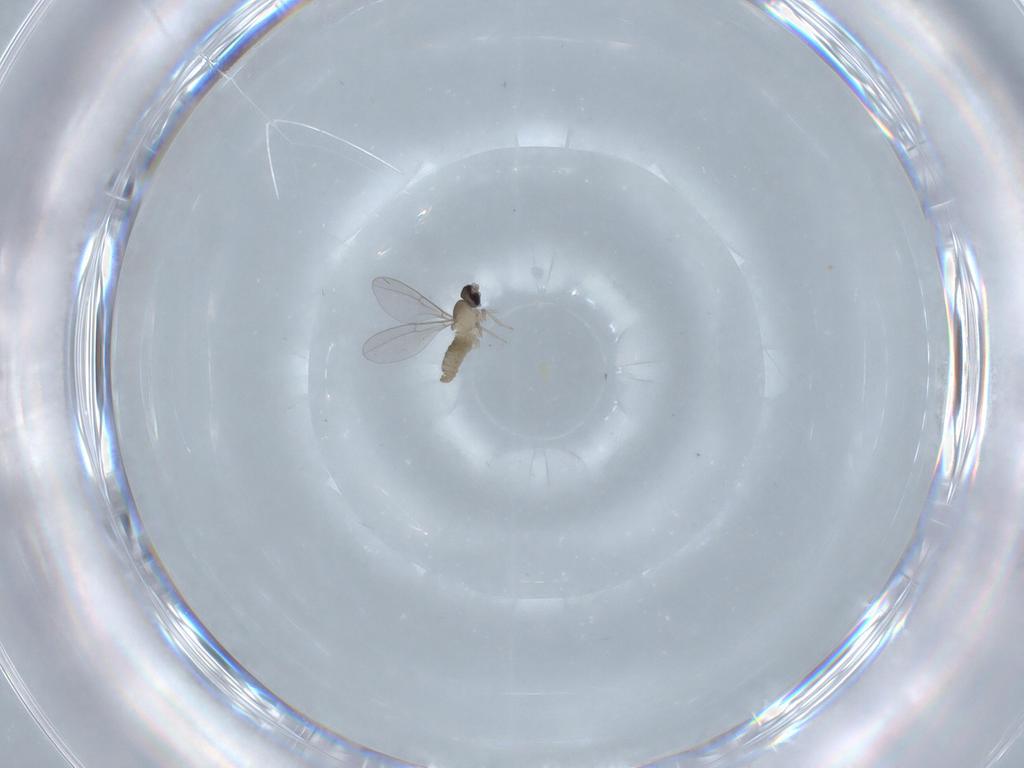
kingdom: Animalia
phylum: Arthropoda
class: Insecta
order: Diptera
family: Cecidomyiidae
